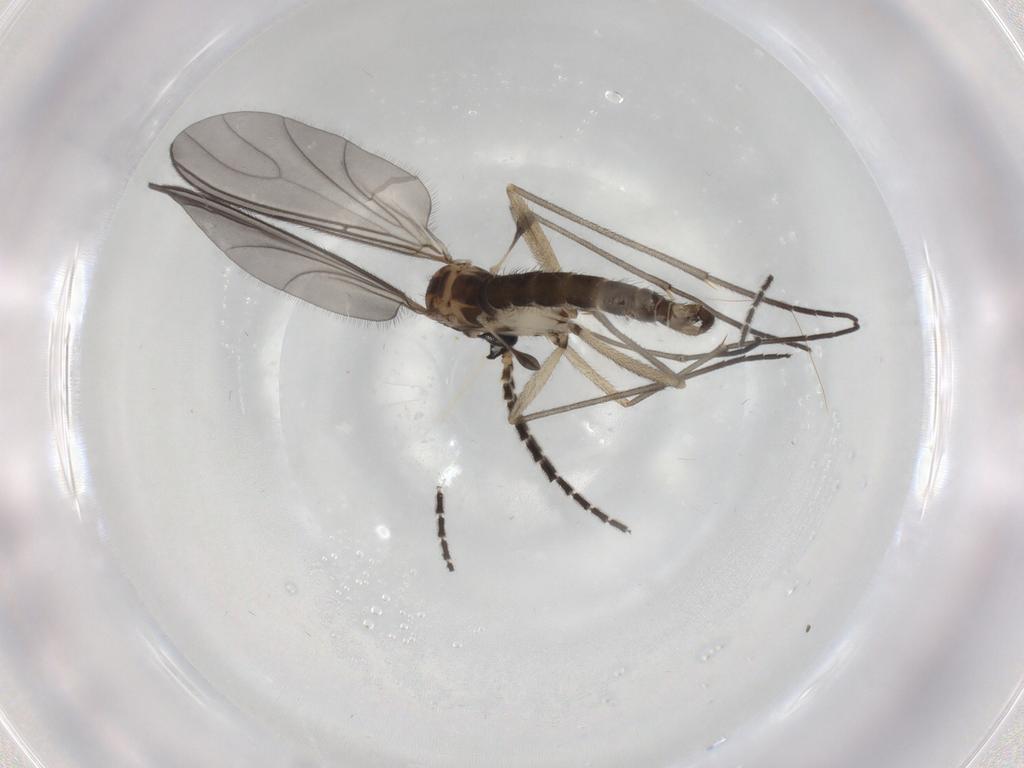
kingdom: Animalia
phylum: Arthropoda
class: Insecta
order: Diptera
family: Sciaridae
